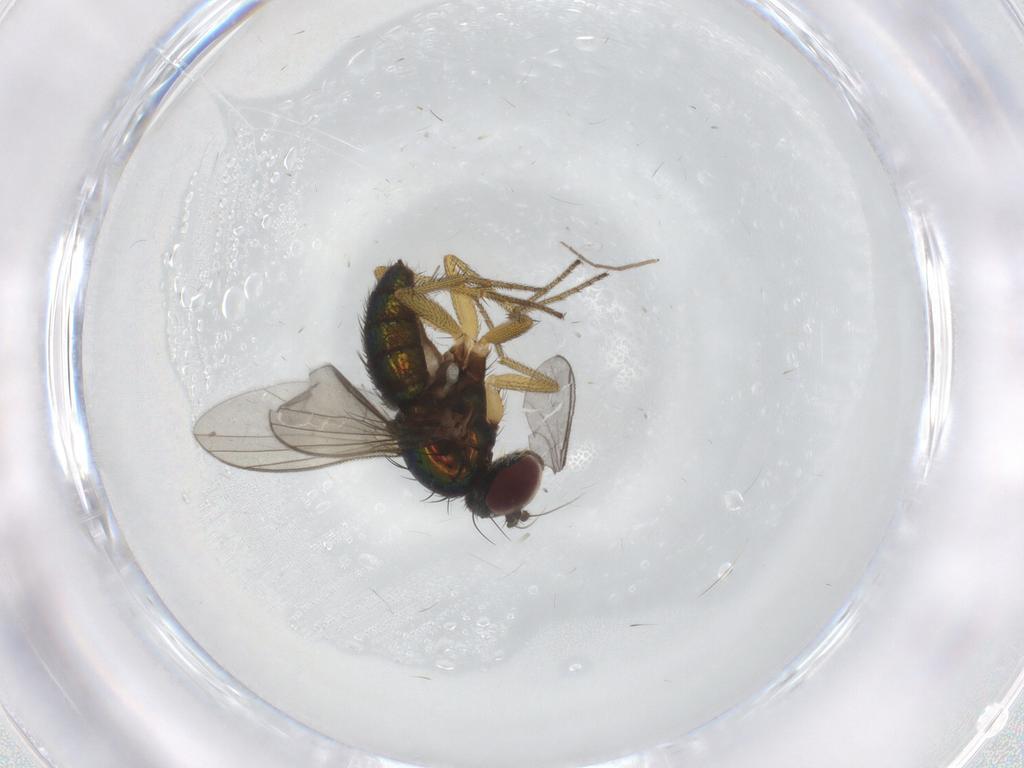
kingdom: Animalia
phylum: Arthropoda
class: Insecta
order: Diptera
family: Dolichopodidae
